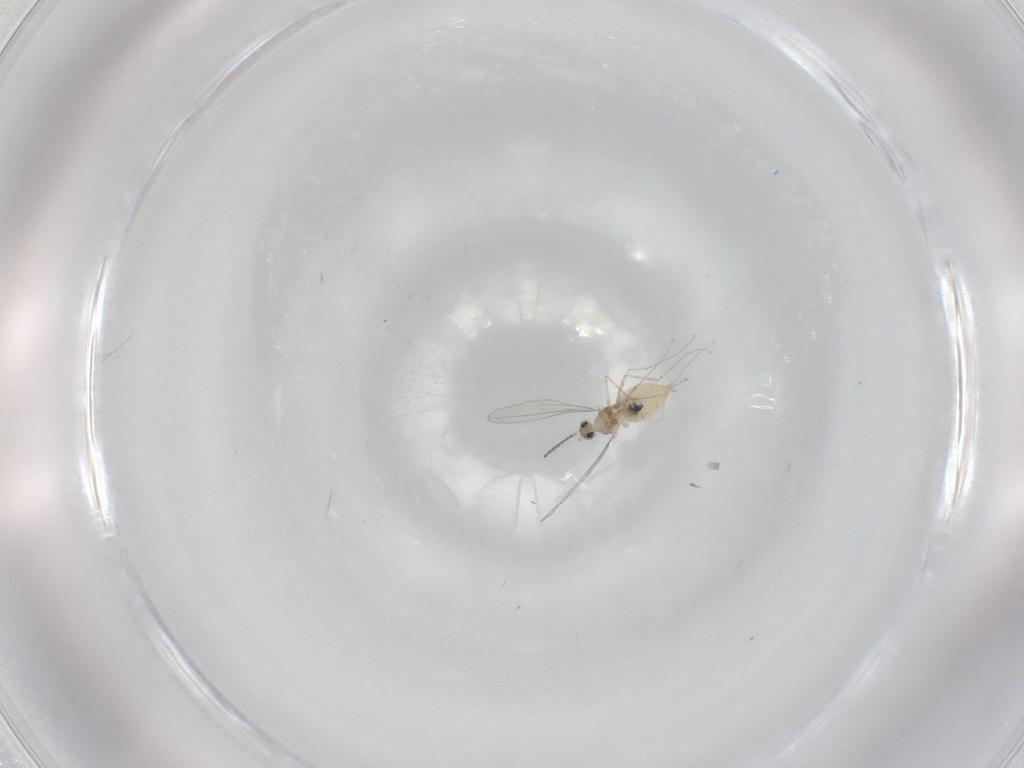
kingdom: Animalia
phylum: Arthropoda
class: Insecta
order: Diptera
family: Cecidomyiidae
